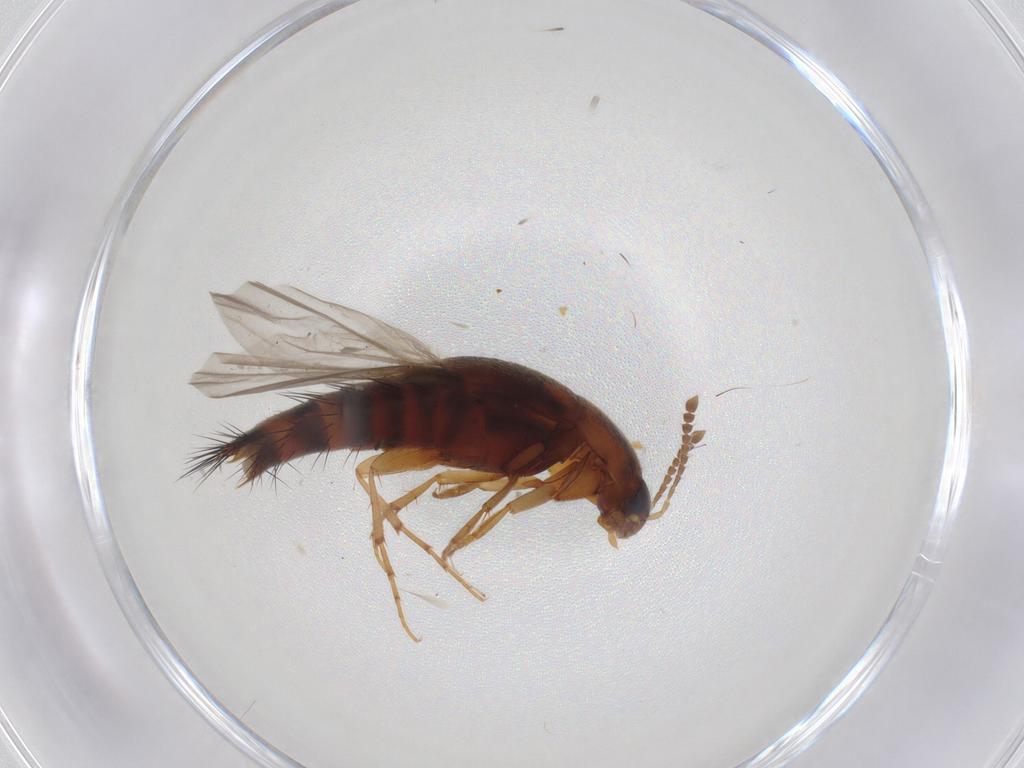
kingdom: Animalia
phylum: Arthropoda
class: Insecta
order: Coleoptera
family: Staphylinidae
